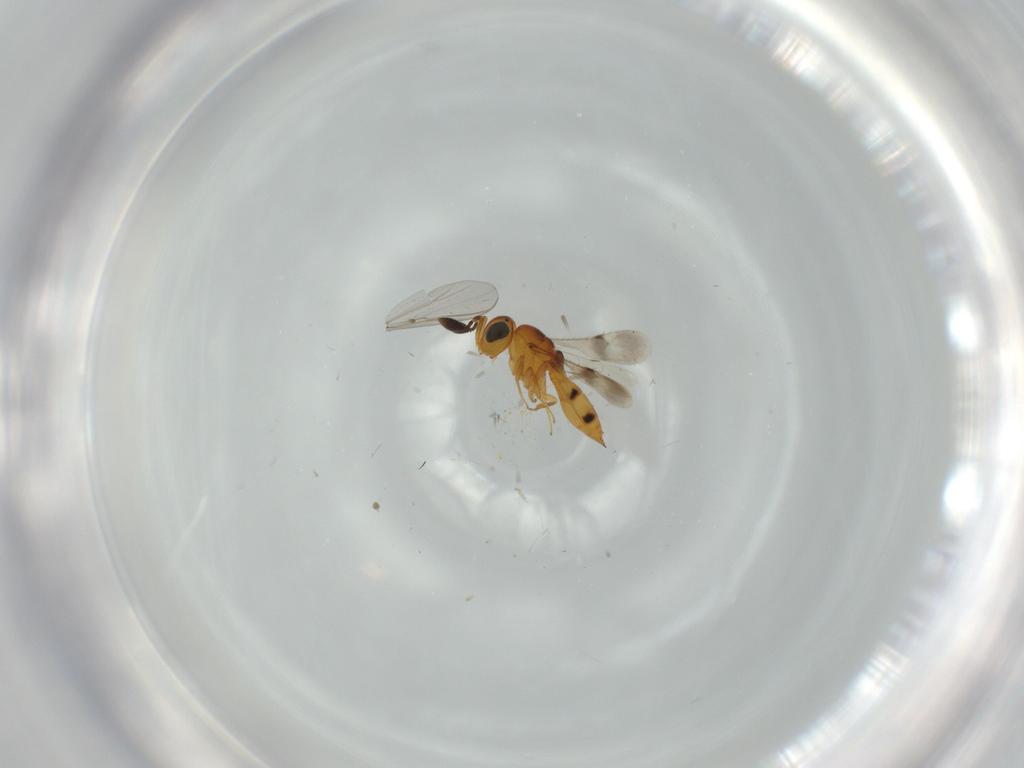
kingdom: Animalia
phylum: Arthropoda
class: Insecta
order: Hymenoptera
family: Scelionidae
